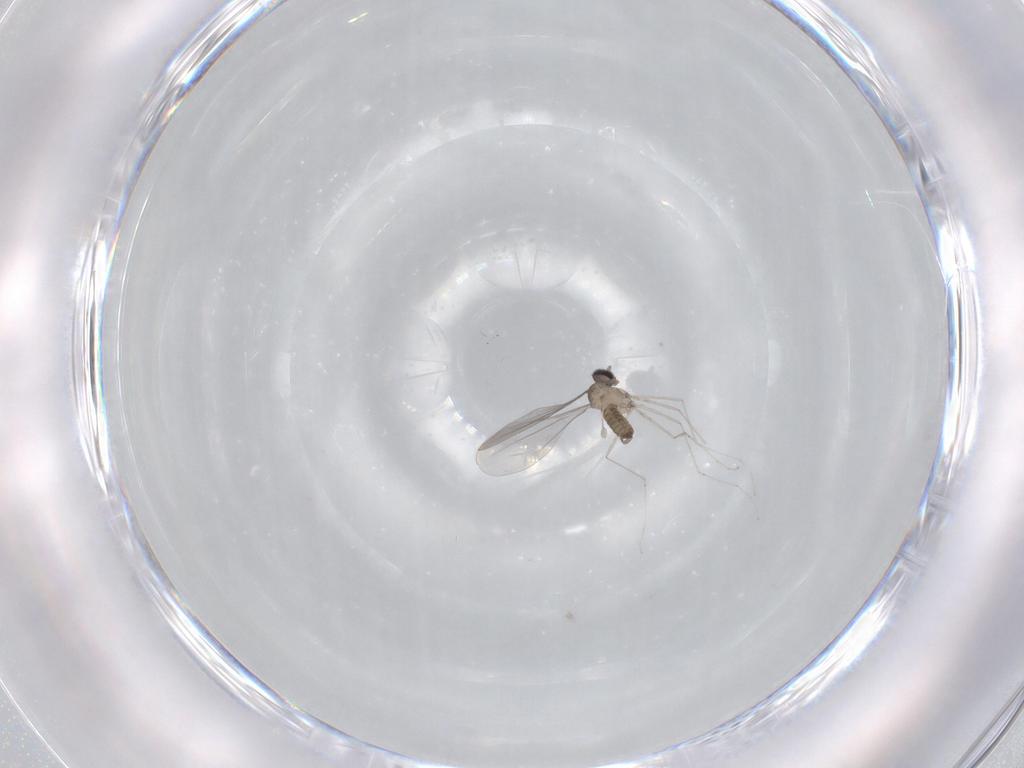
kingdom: Animalia
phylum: Arthropoda
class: Insecta
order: Diptera
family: Cecidomyiidae
